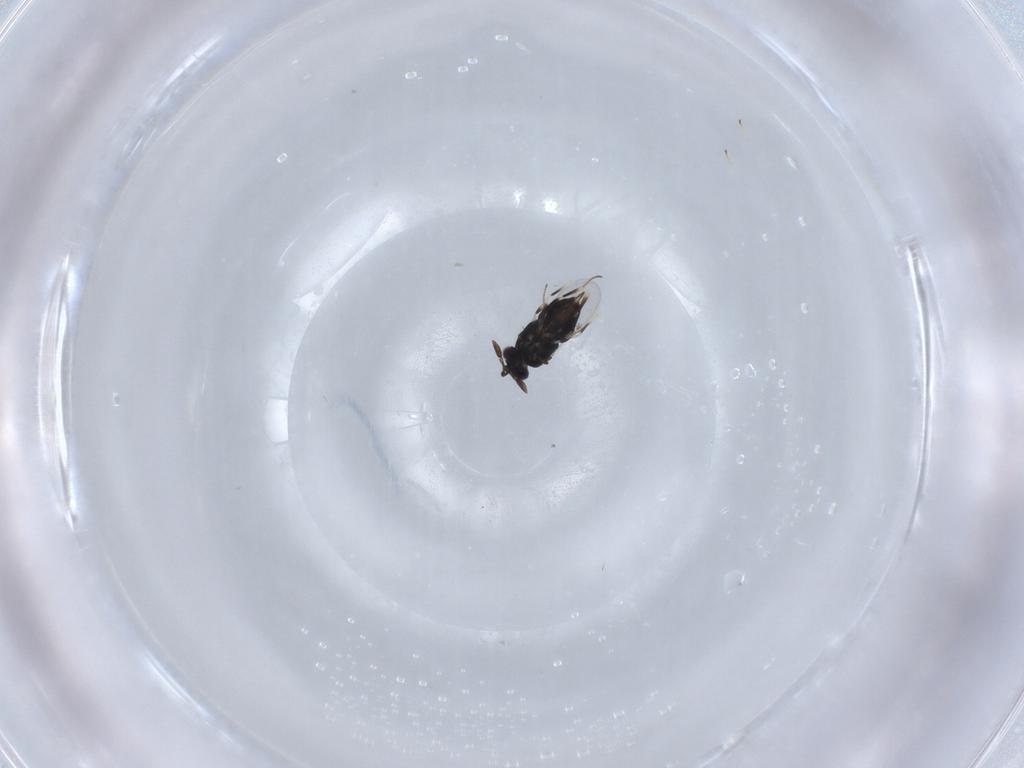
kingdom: Animalia
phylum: Arthropoda
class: Insecta
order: Hymenoptera
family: Encyrtidae
